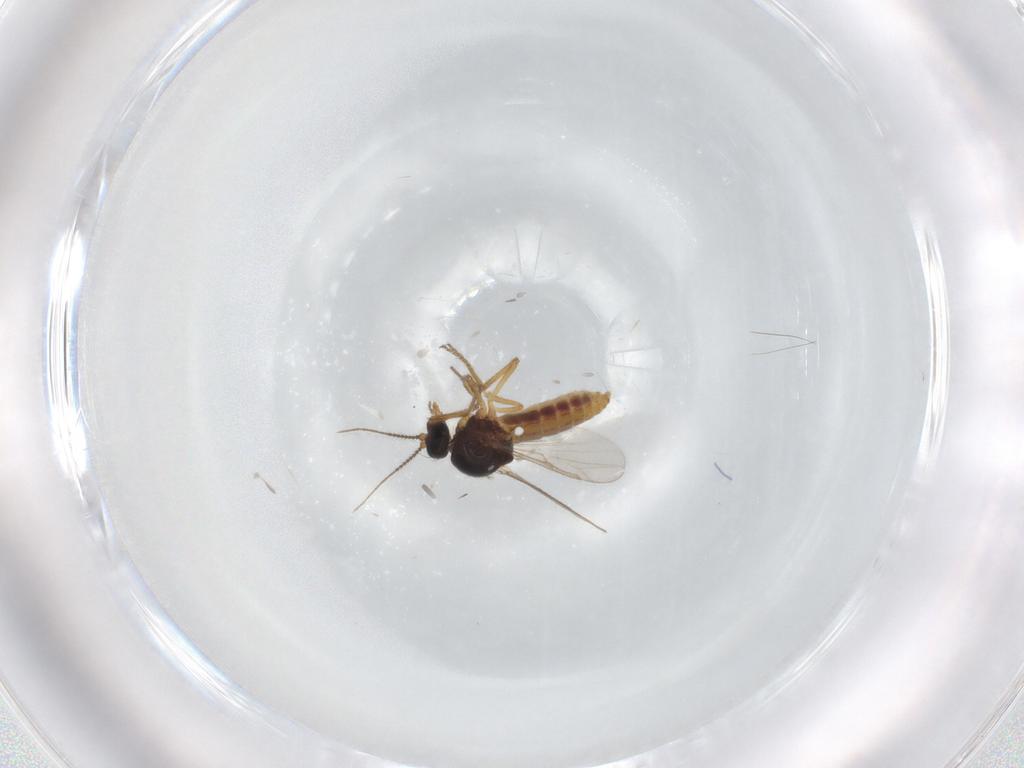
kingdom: Animalia
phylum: Arthropoda
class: Insecta
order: Diptera
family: Ceratopogonidae
